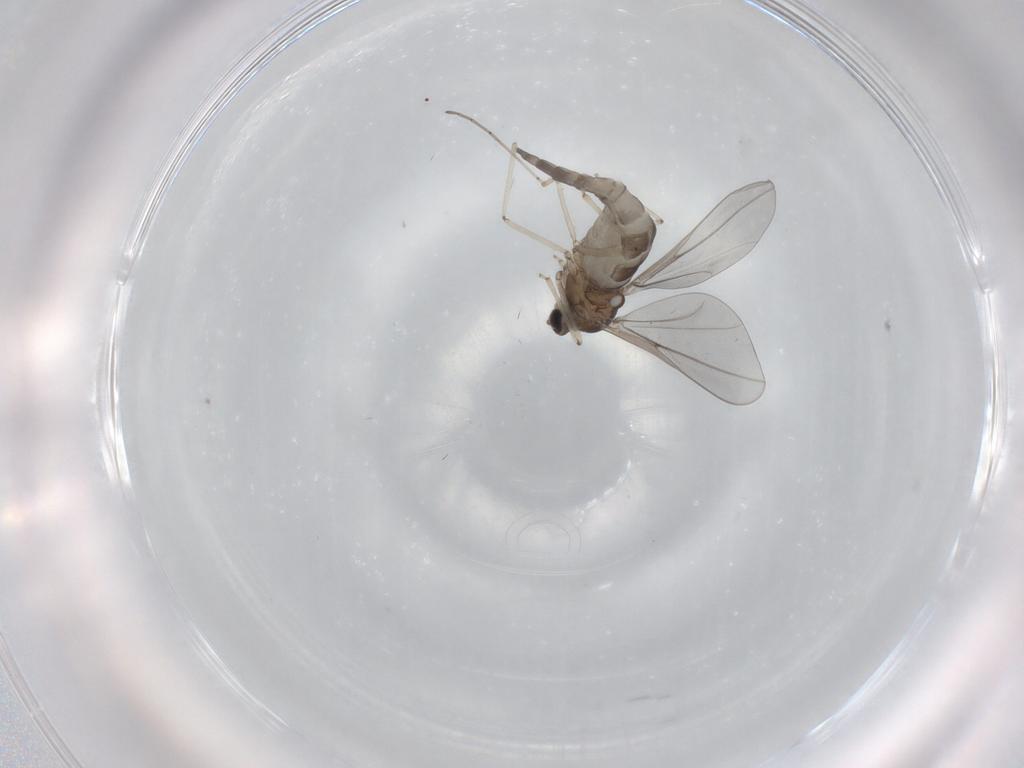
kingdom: Animalia
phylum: Arthropoda
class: Insecta
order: Diptera
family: Cecidomyiidae
